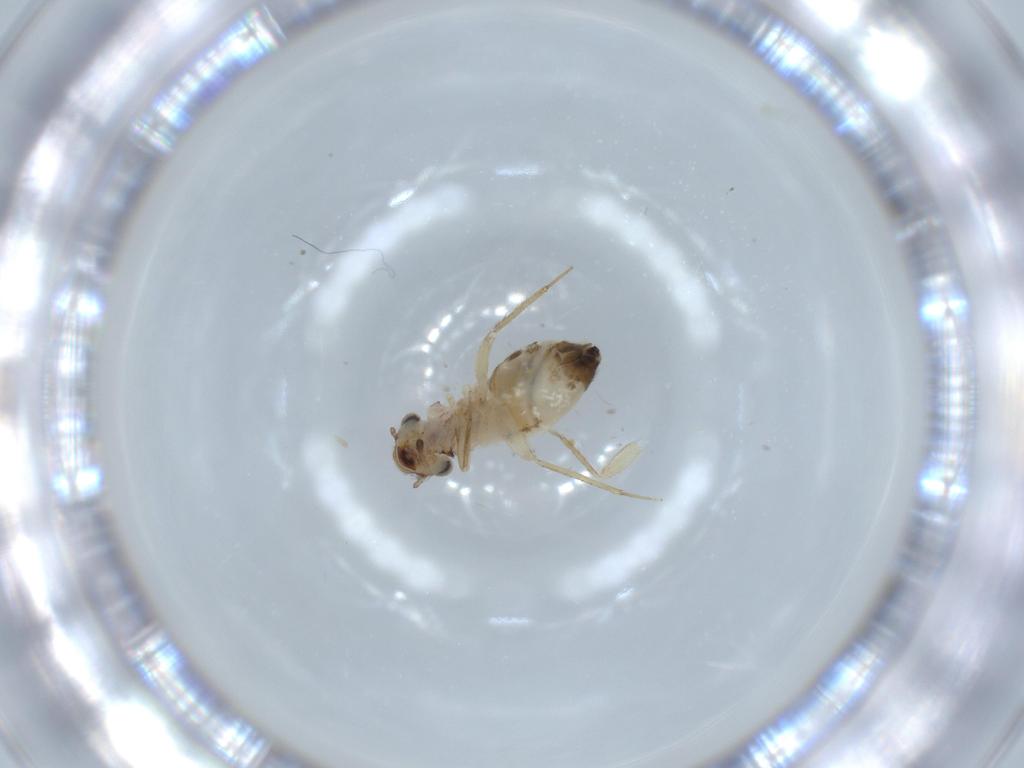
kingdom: Animalia
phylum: Arthropoda
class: Insecta
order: Psocodea
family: Lepidopsocidae
